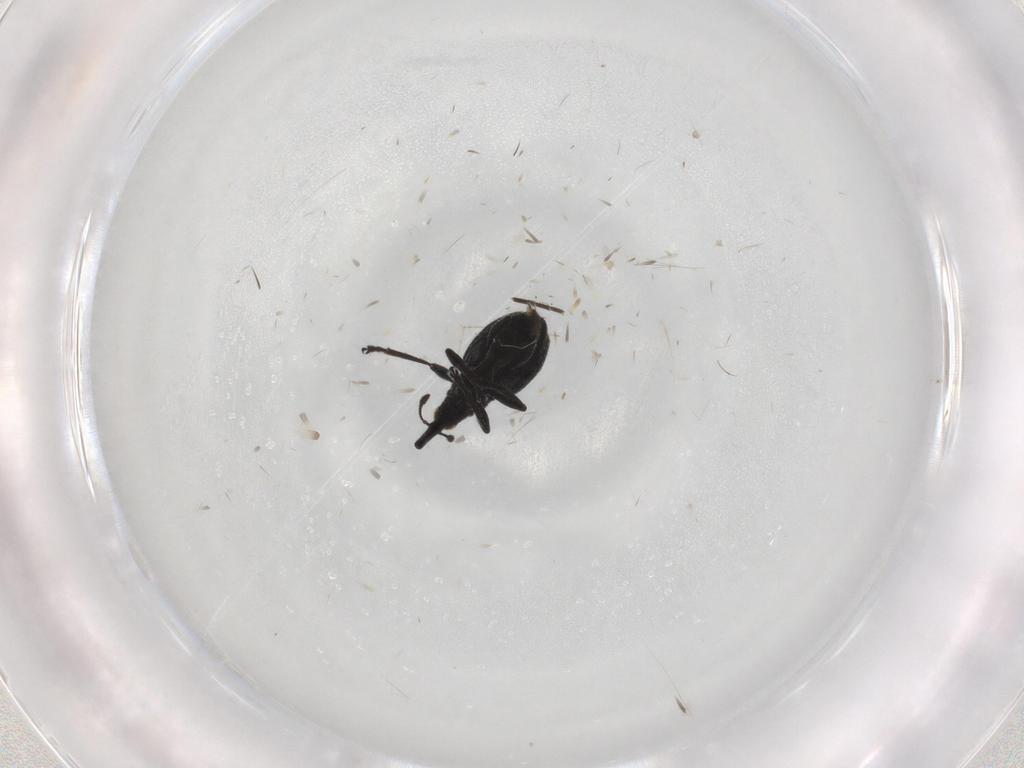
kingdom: Animalia
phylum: Arthropoda
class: Insecta
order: Coleoptera
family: Brentidae
